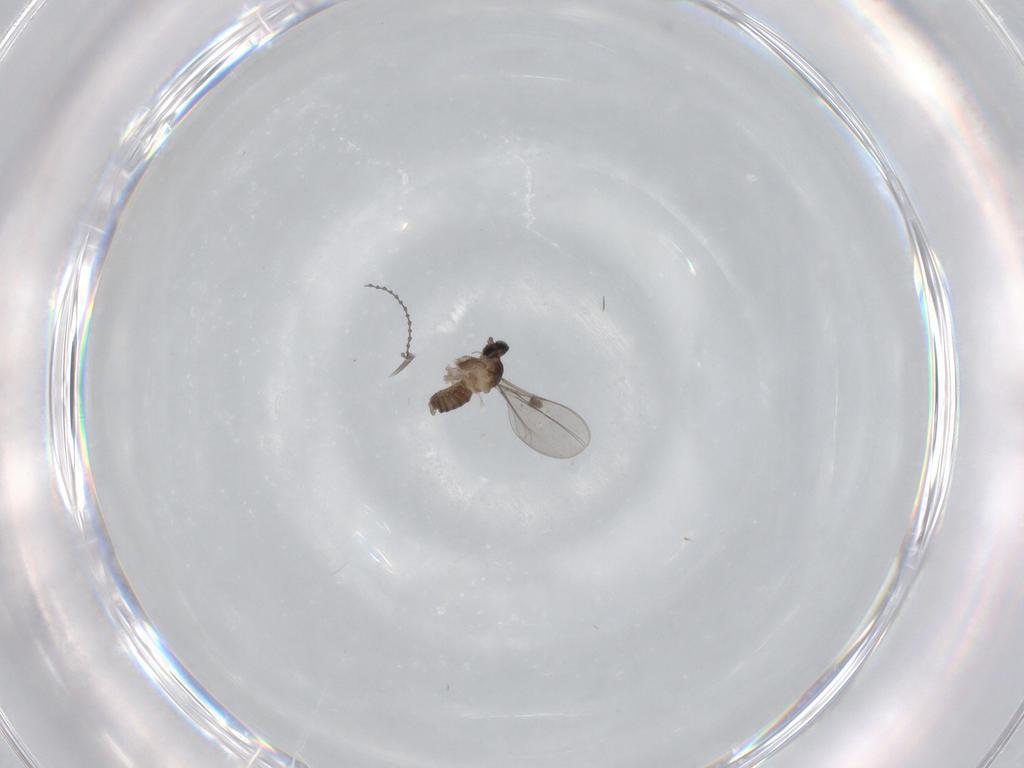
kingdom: Animalia
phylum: Arthropoda
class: Insecta
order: Diptera
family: Cecidomyiidae
